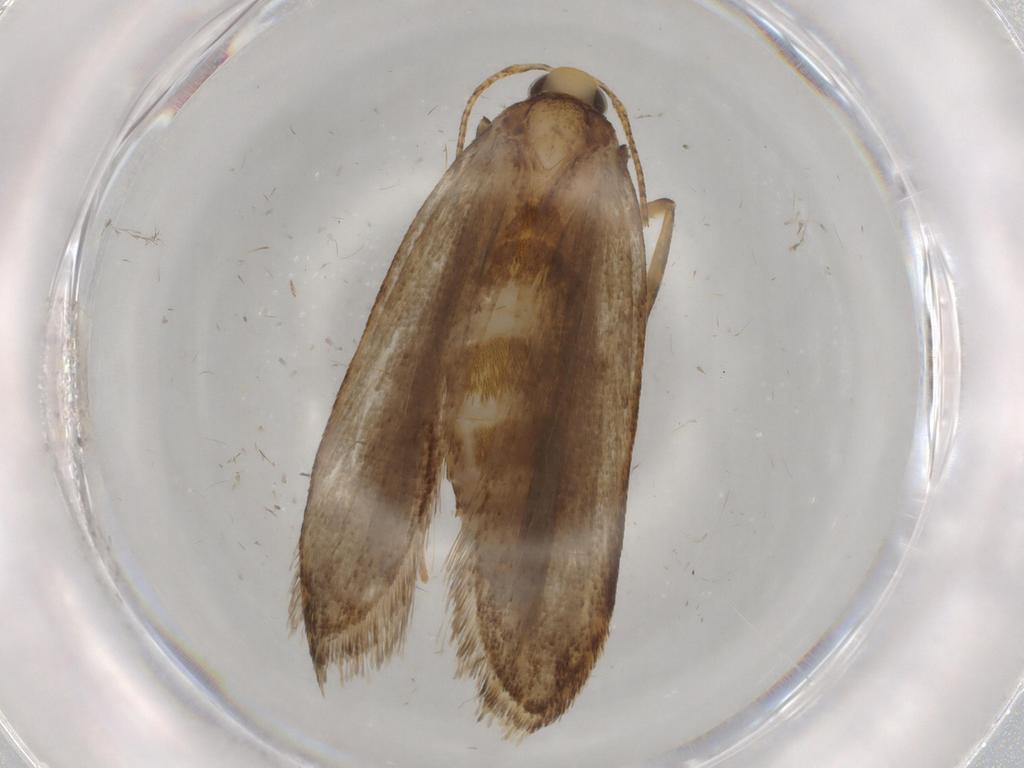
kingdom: Animalia
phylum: Arthropoda
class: Insecta
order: Lepidoptera
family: Autostichidae
